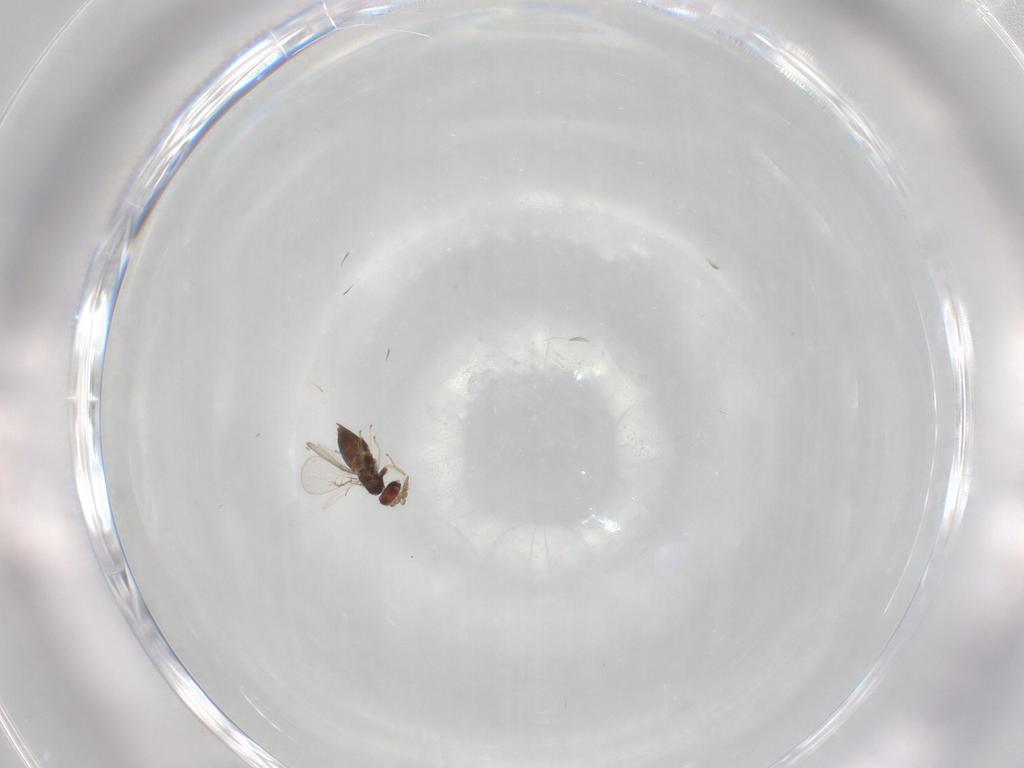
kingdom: Animalia
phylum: Arthropoda
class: Insecta
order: Hymenoptera
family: Trichogrammatidae
